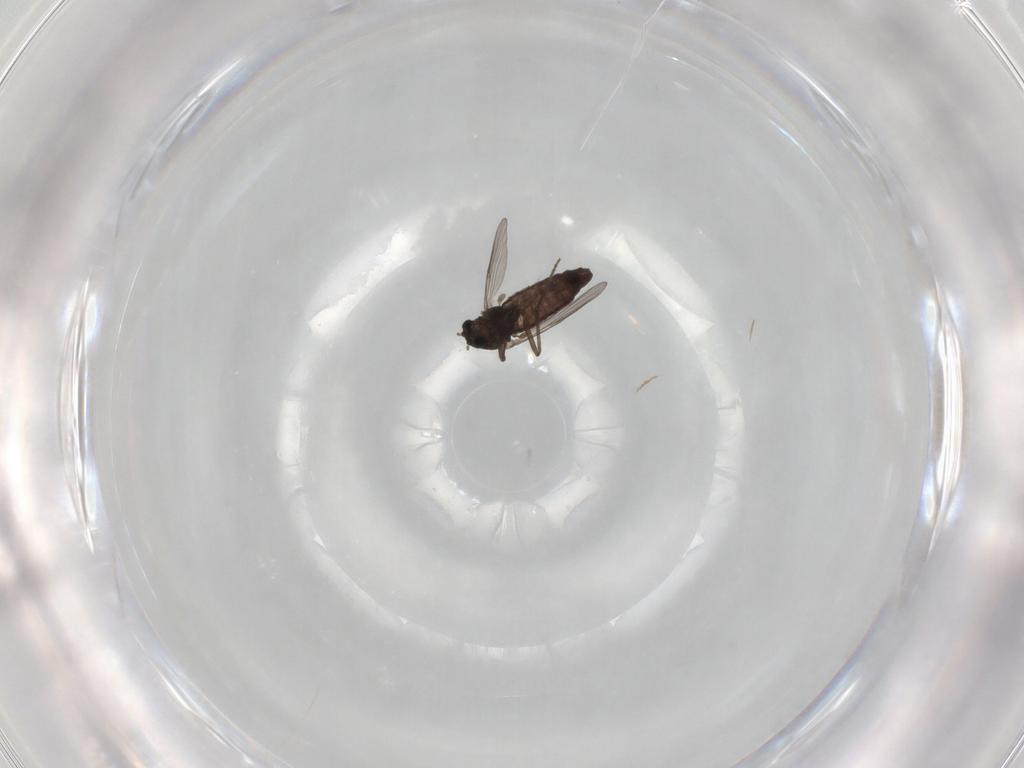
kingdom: Animalia
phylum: Arthropoda
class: Insecta
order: Diptera
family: Chironomidae
